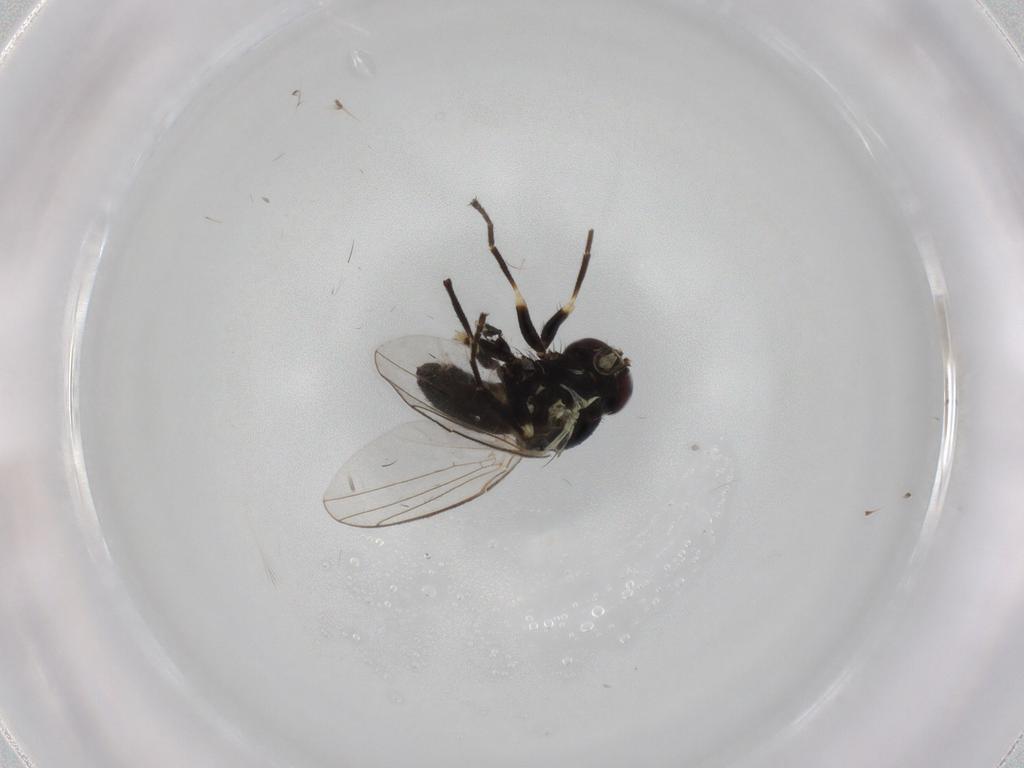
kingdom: Animalia
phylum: Arthropoda
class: Insecta
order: Diptera
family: Agromyzidae
